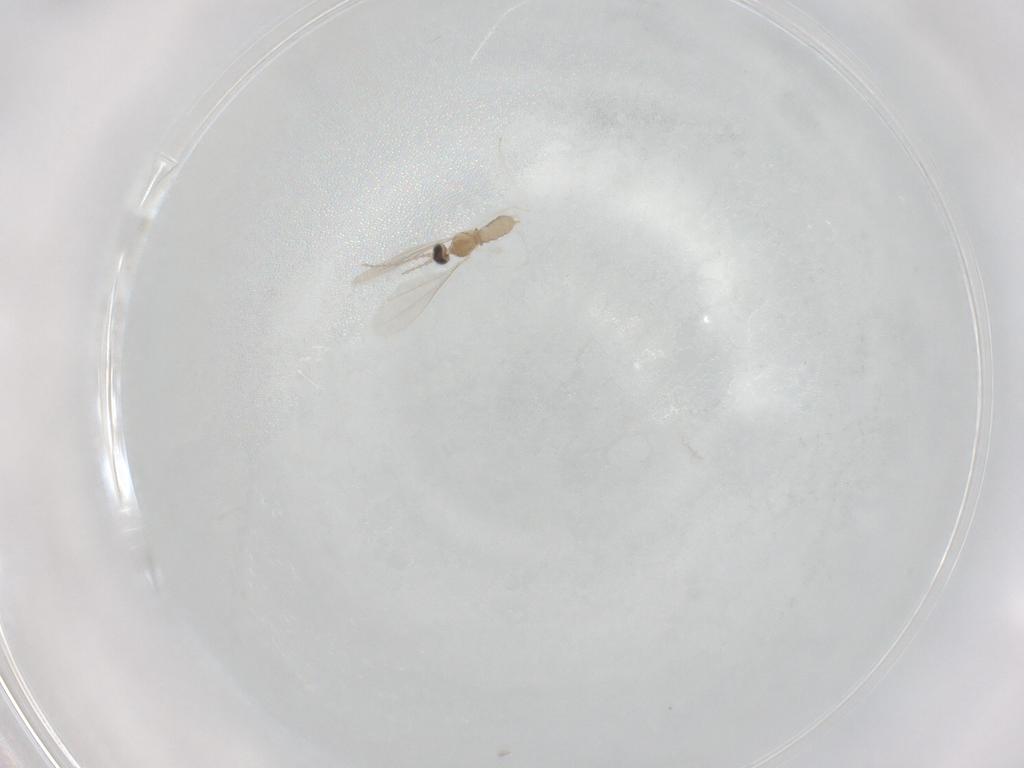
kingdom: Animalia
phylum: Arthropoda
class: Insecta
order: Diptera
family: Cecidomyiidae
